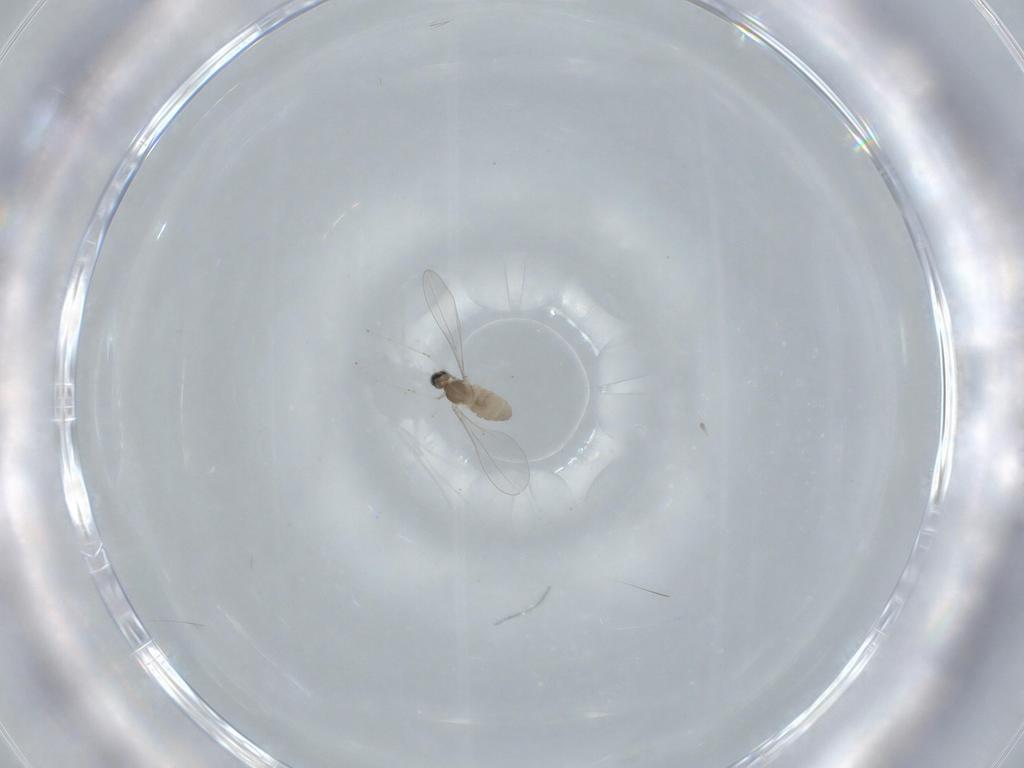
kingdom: Animalia
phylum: Arthropoda
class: Insecta
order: Diptera
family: Cecidomyiidae
